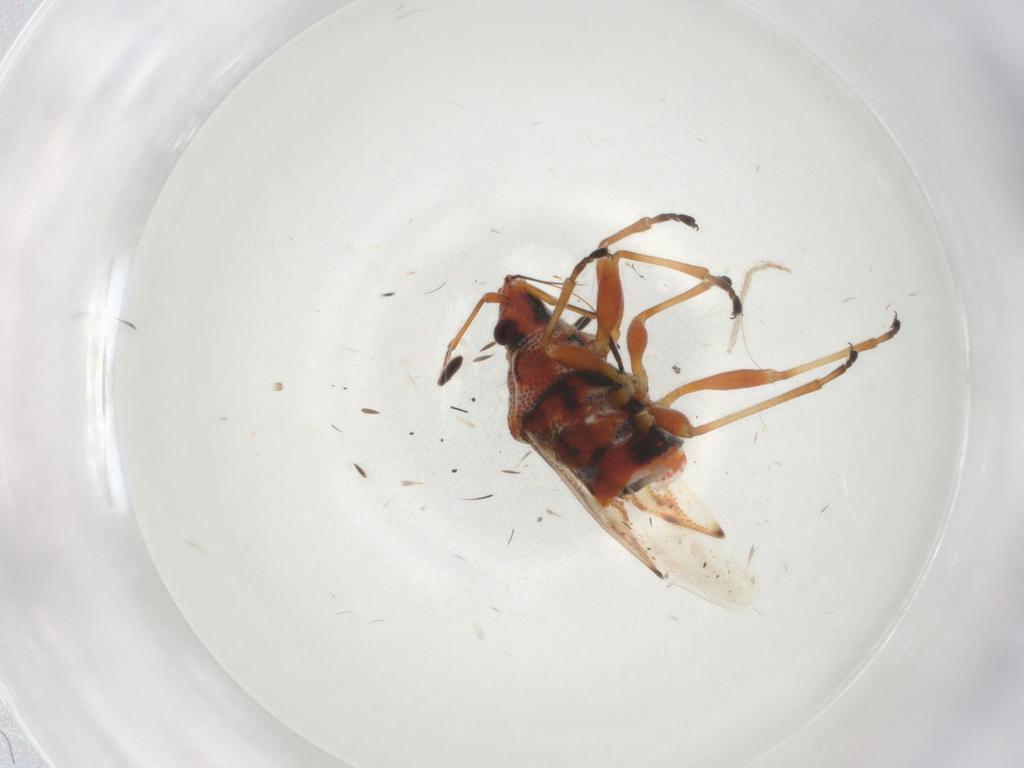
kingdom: Animalia
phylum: Arthropoda
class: Insecta
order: Hemiptera
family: Lygaeidae
